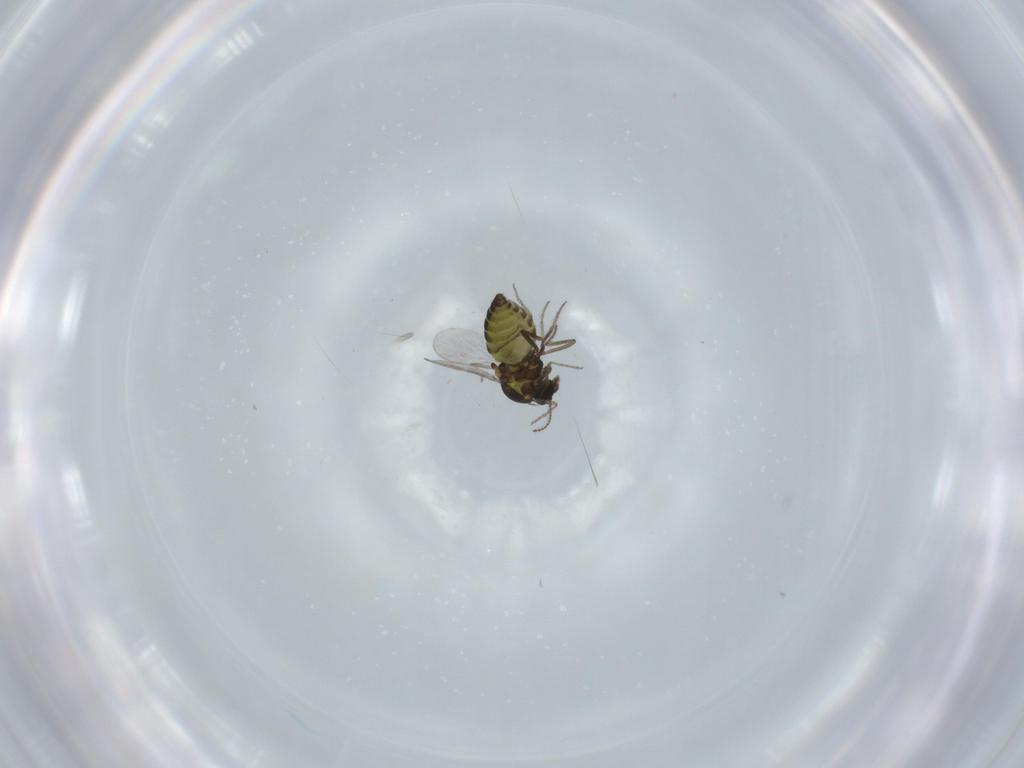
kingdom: Animalia
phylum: Arthropoda
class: Insecta
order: Diptera
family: Ceratopogonidae
